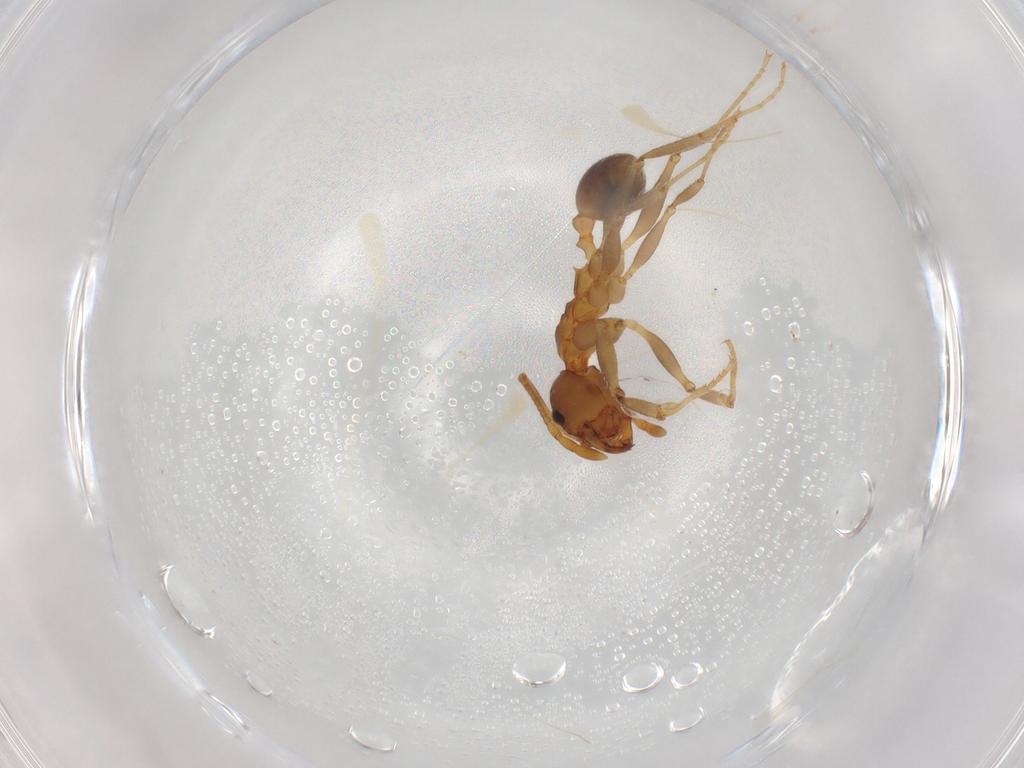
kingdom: Animalia
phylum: Arthropoda
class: Insecta
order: Hymenoptera
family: Formicidae
